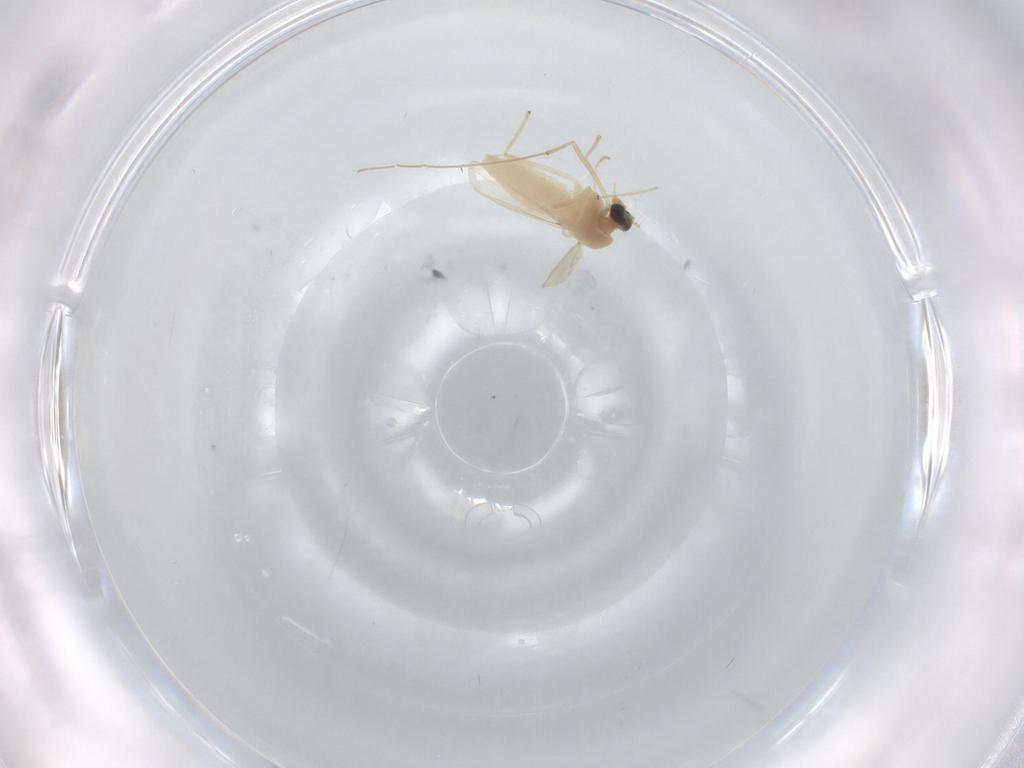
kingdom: Animalia
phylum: Arthropoda
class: Insecta
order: Diptera
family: Chironomidae
